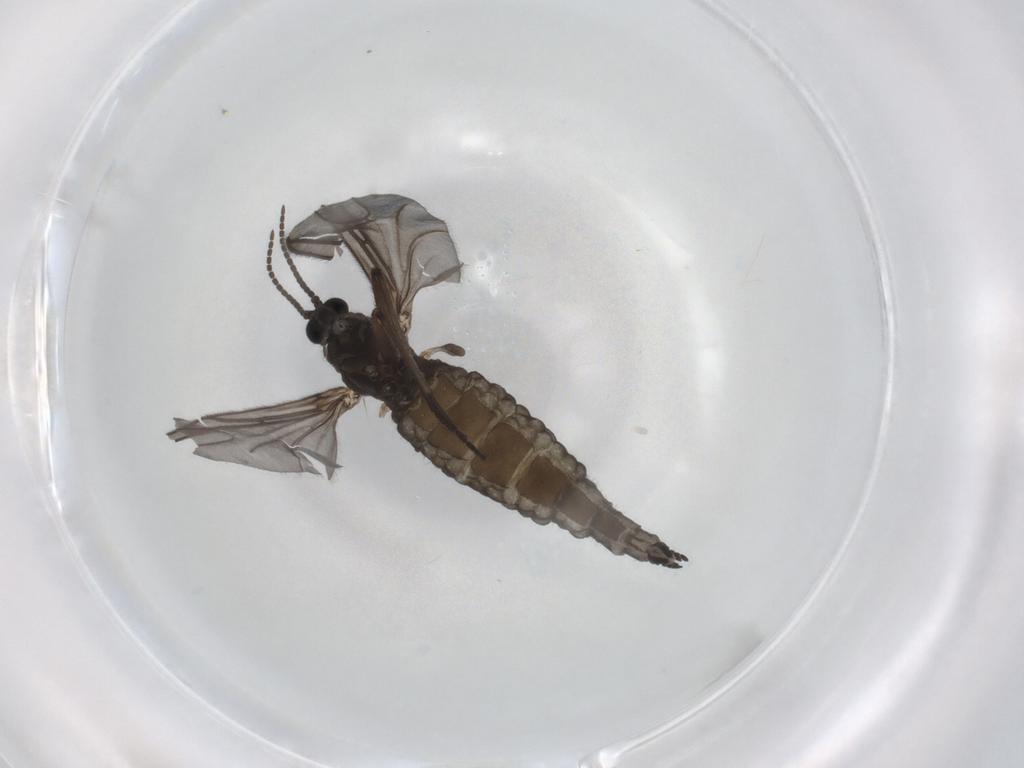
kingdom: Animalia
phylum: Arthropoda
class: Insecta
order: Diptera
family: Sciaridae
